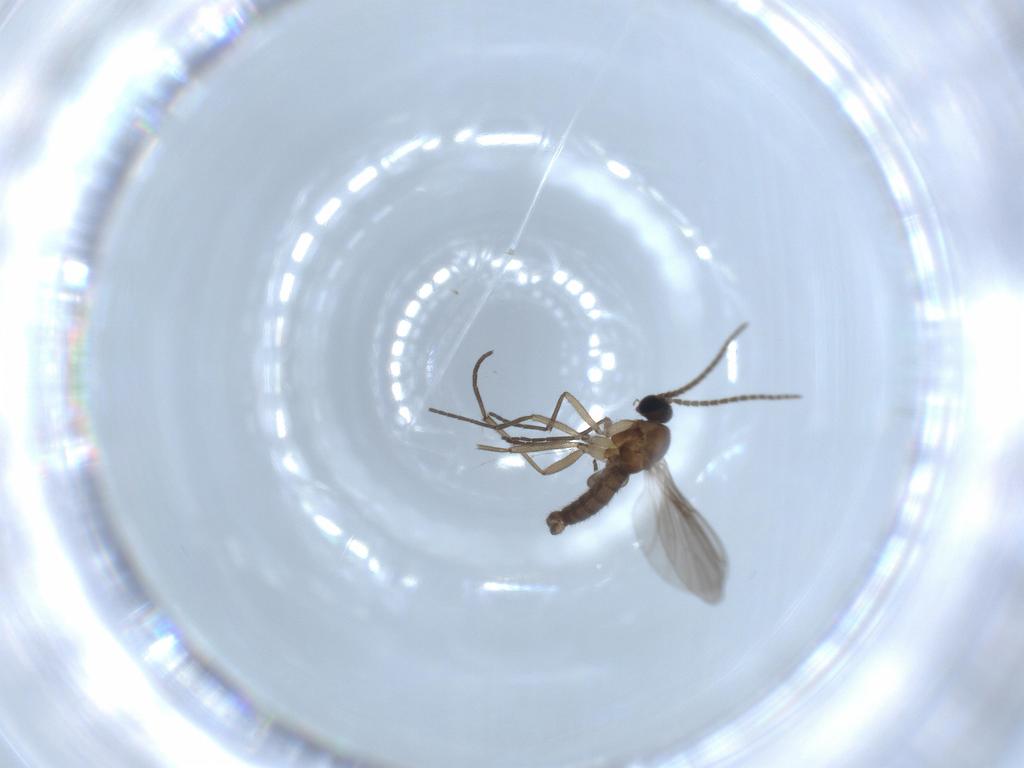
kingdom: Animalia
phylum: Arthropoda
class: Insecta
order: Diptera
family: Sciaridae
